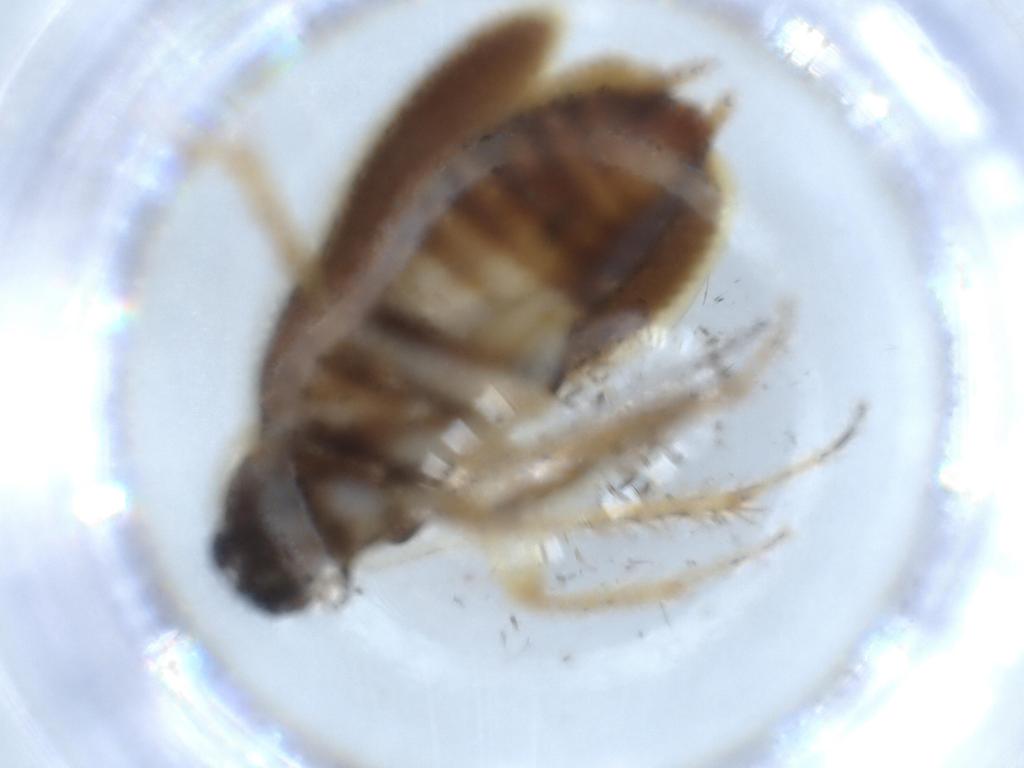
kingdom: Animalia
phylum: Arthropoda
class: Insecta
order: Blattodea
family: Ectobiidae
